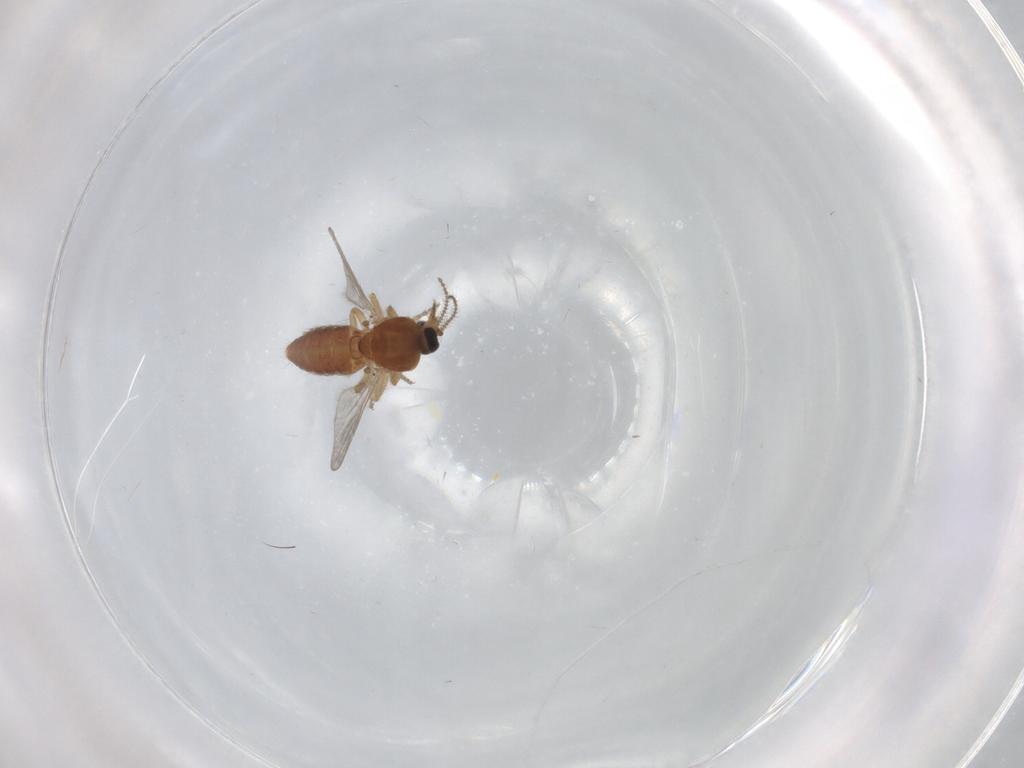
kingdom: Animalia
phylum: Arthropoda
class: Insecta
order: Diptera
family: Ceratopogonidae
